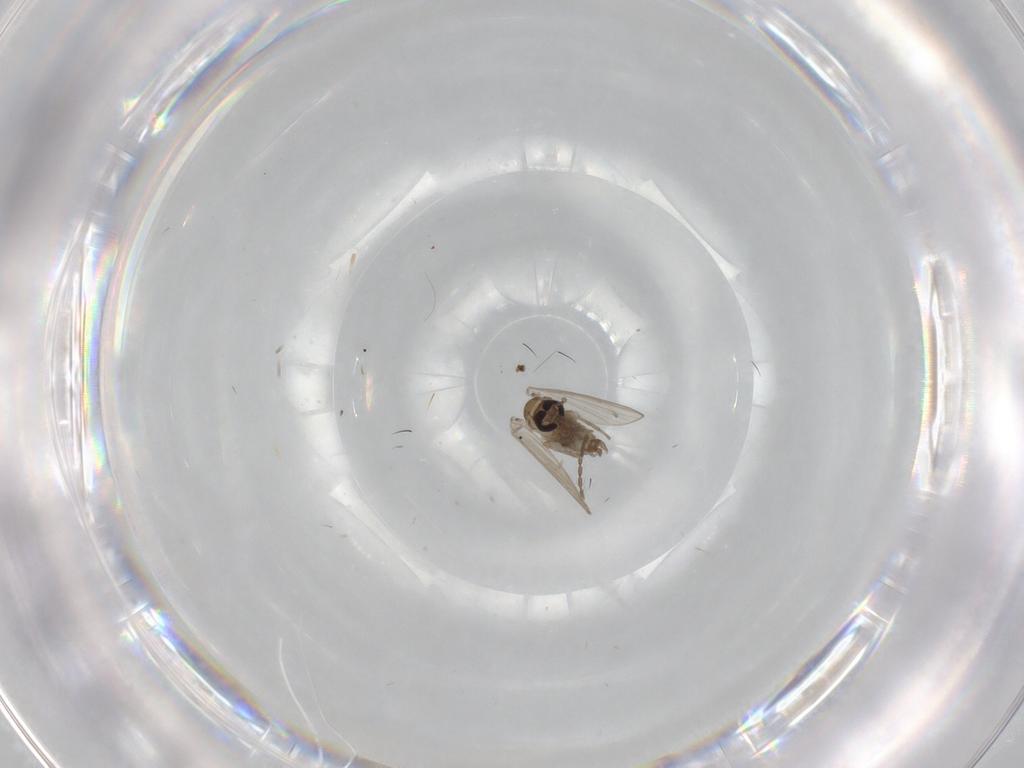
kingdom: Animalia
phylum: Arthropoda
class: Insecta
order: Diptera
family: Psychodidae
